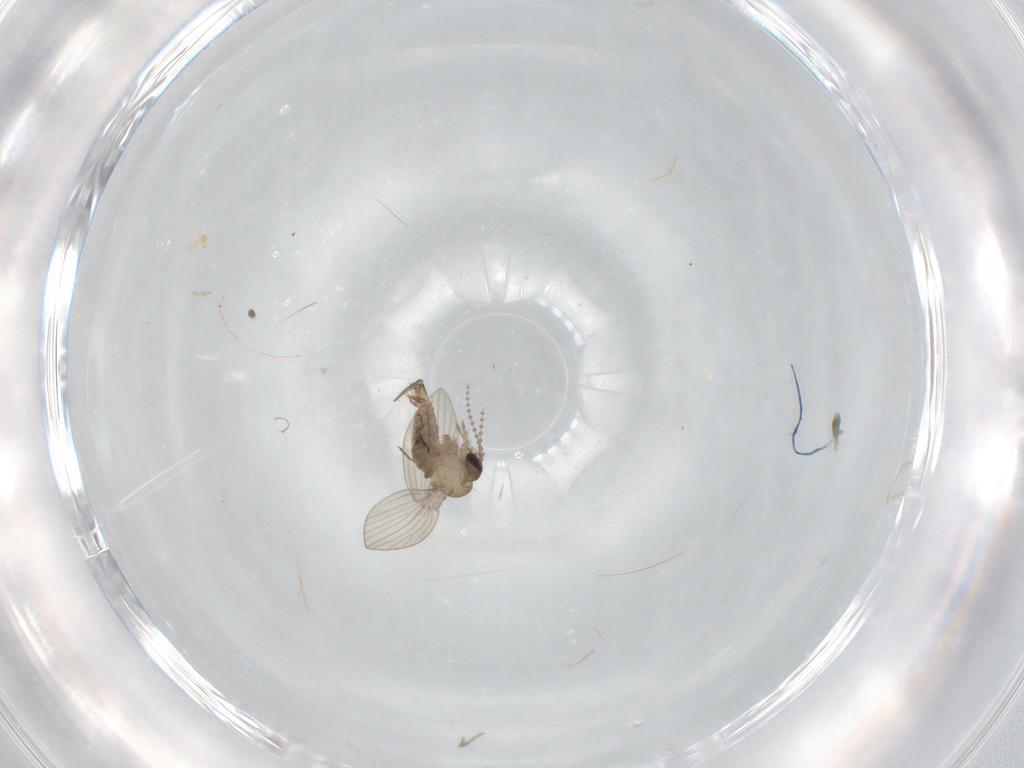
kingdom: Animalia
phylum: Arthropoda
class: Insecta
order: Diptera
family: Psychodidae
